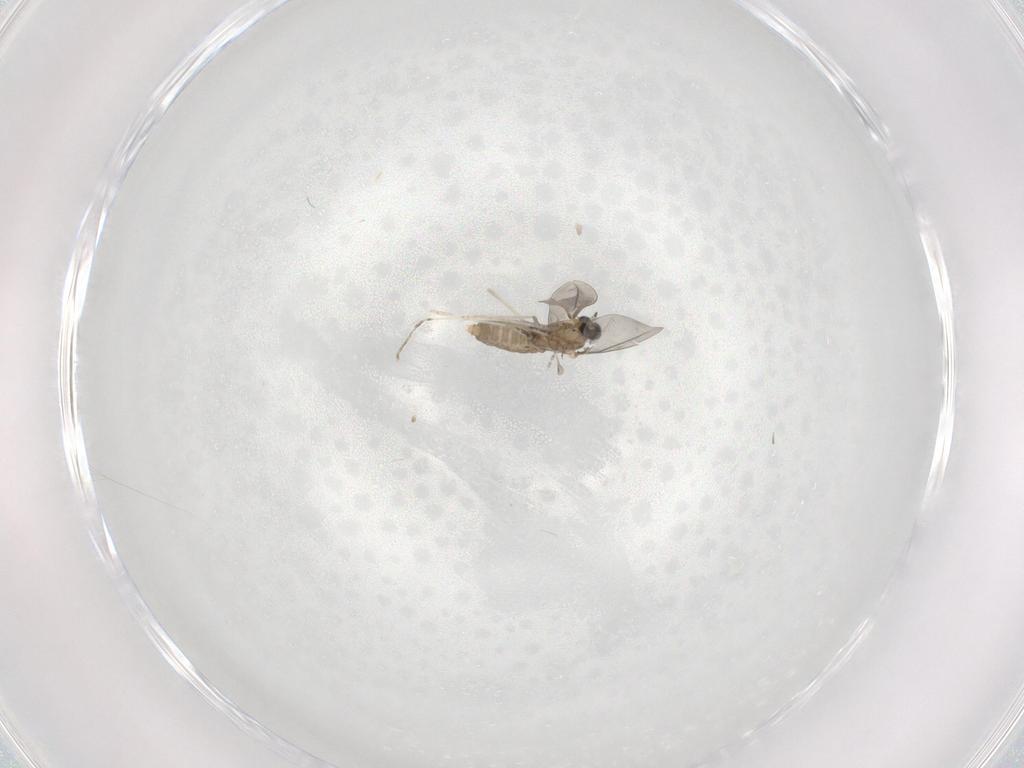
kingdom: Animalia
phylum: Arthropoda
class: Insecta
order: Diptera
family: Cecidomyiidae
